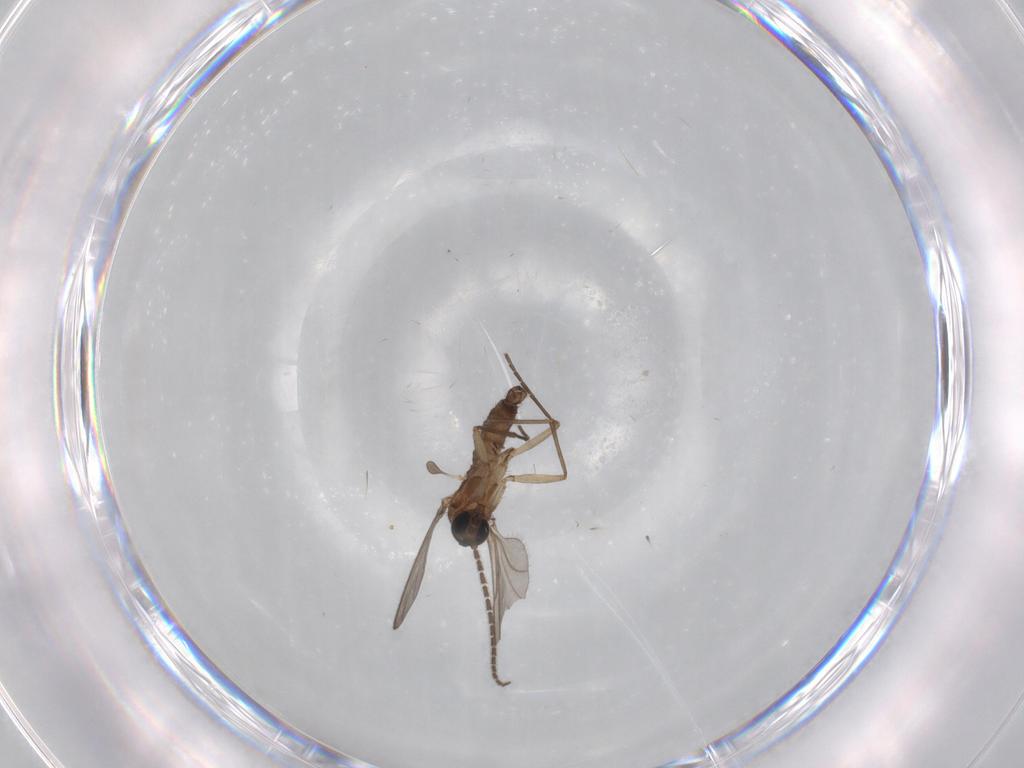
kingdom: Animalia
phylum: Arthropoda
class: Insecta
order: Diptera
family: Sciaridae
